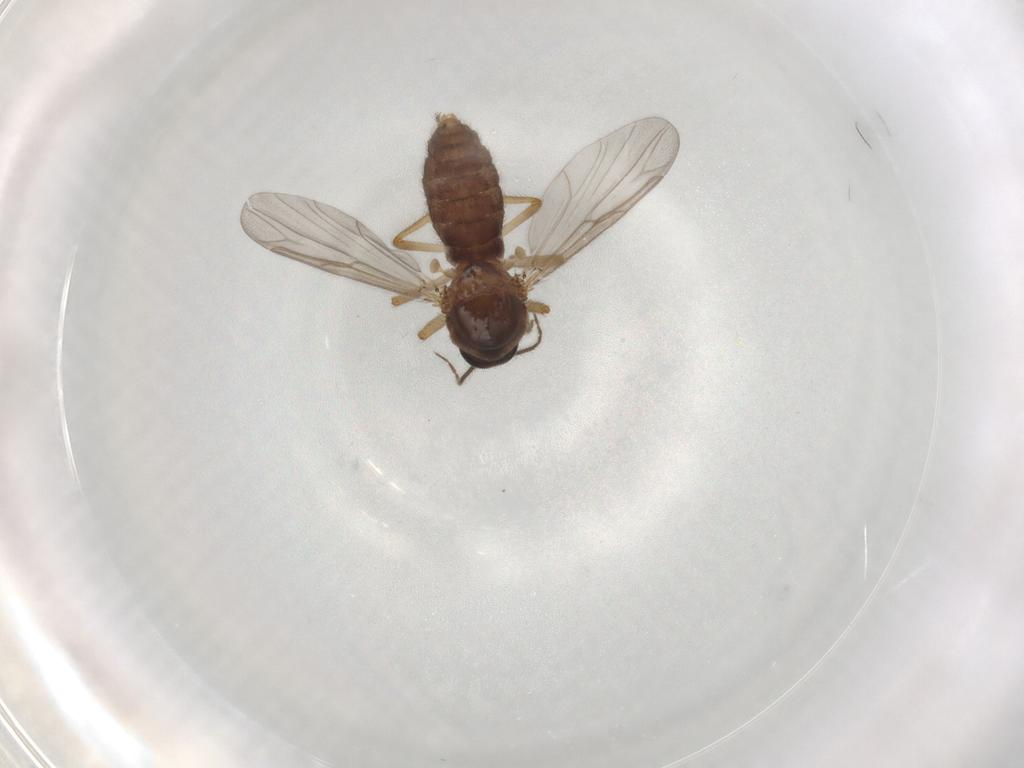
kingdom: Animalia
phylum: Arthropoda
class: Insecta
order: Diptera
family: Ceratopogonidae
